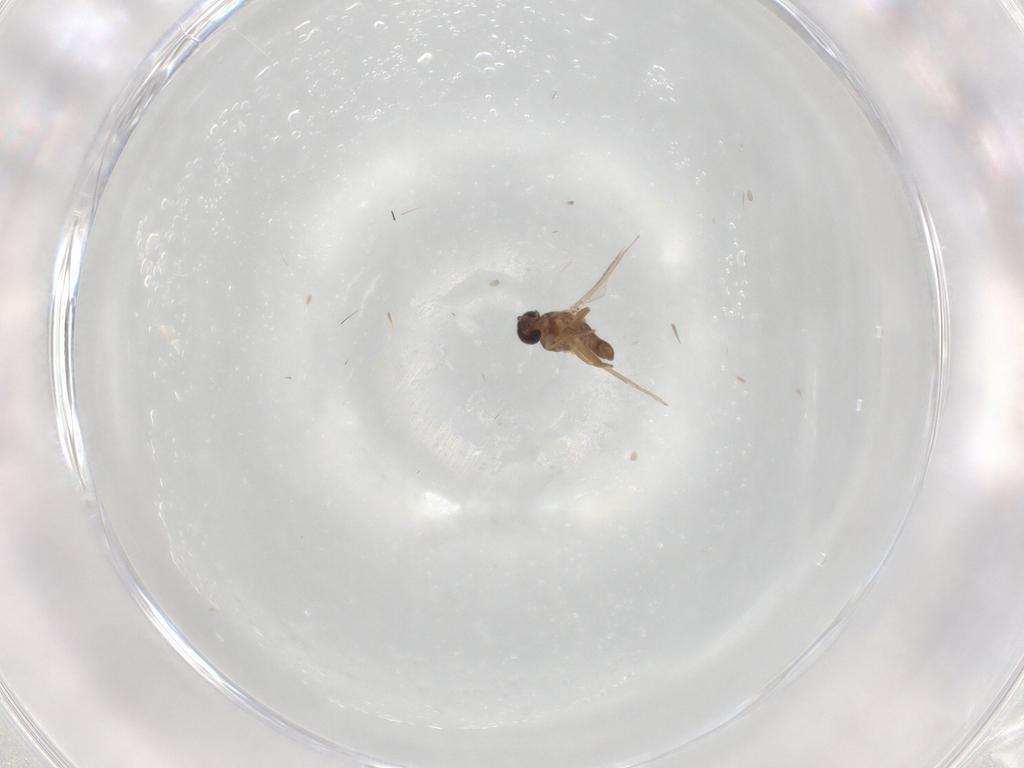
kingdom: Animalia
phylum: Arthropoda
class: Insecta
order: Diptera
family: Ceratopogonidae
